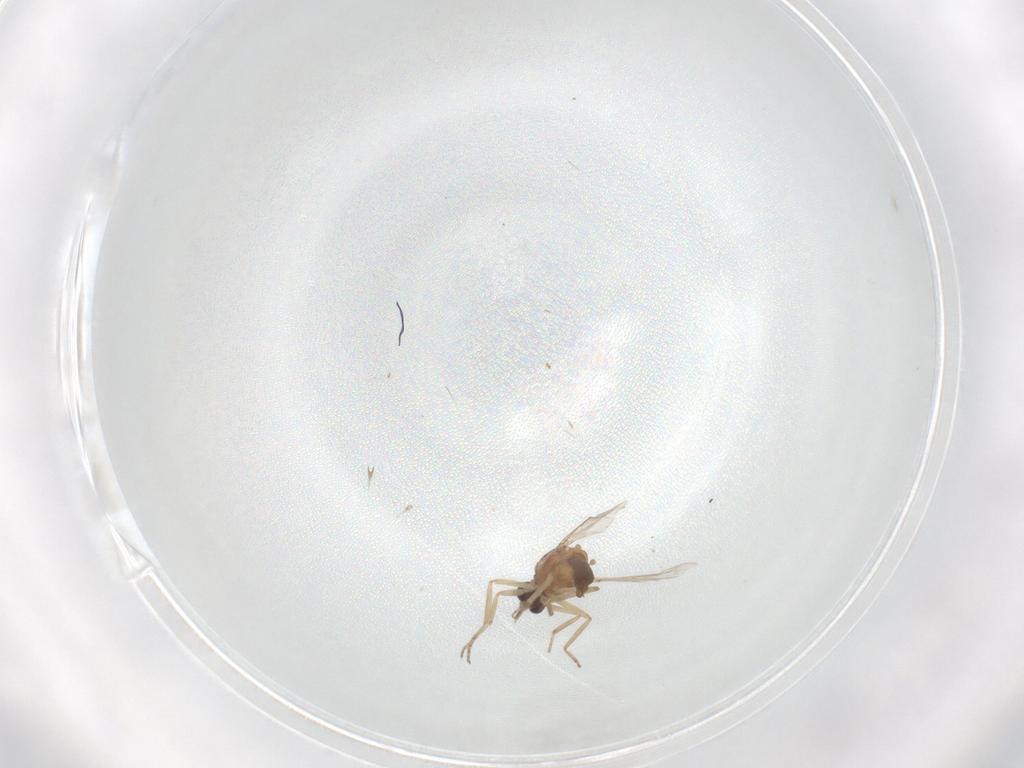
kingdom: Animalia
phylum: Arthropoda
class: Insecta
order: Diptera
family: Ceratopogonidae
